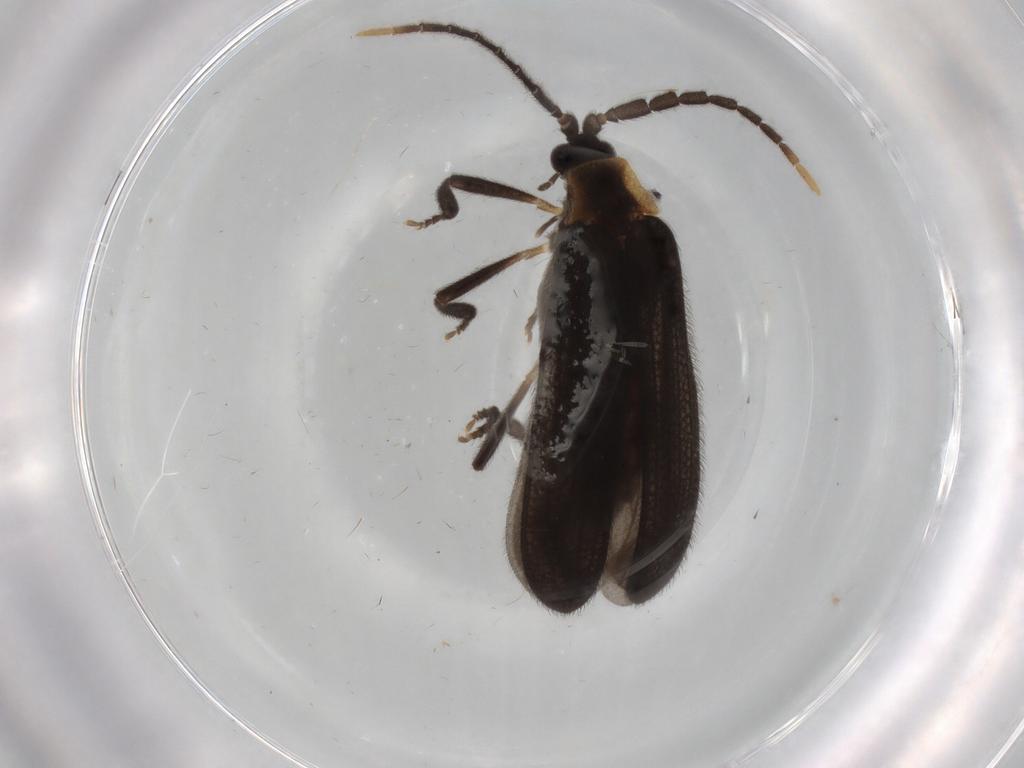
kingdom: Animalia
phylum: Arthropoda
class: Insecta
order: Coleoptera
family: Lycidae
